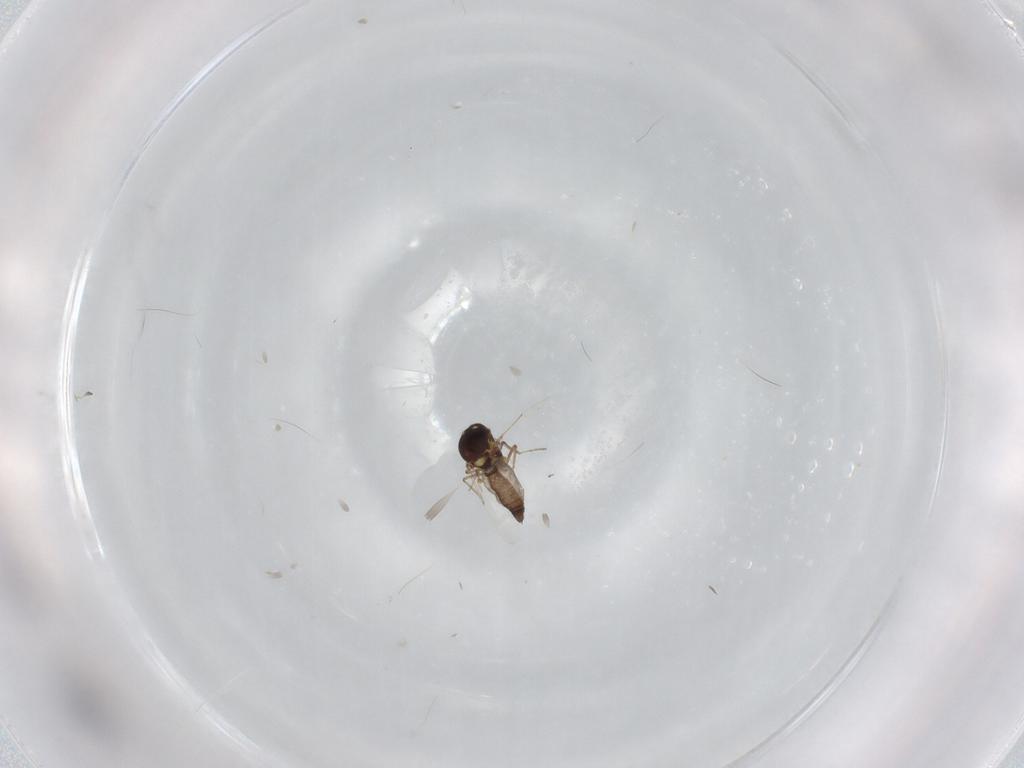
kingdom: Animalia
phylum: Arthropoda
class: Insecta
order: Diptera
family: Ceratopogonidae
